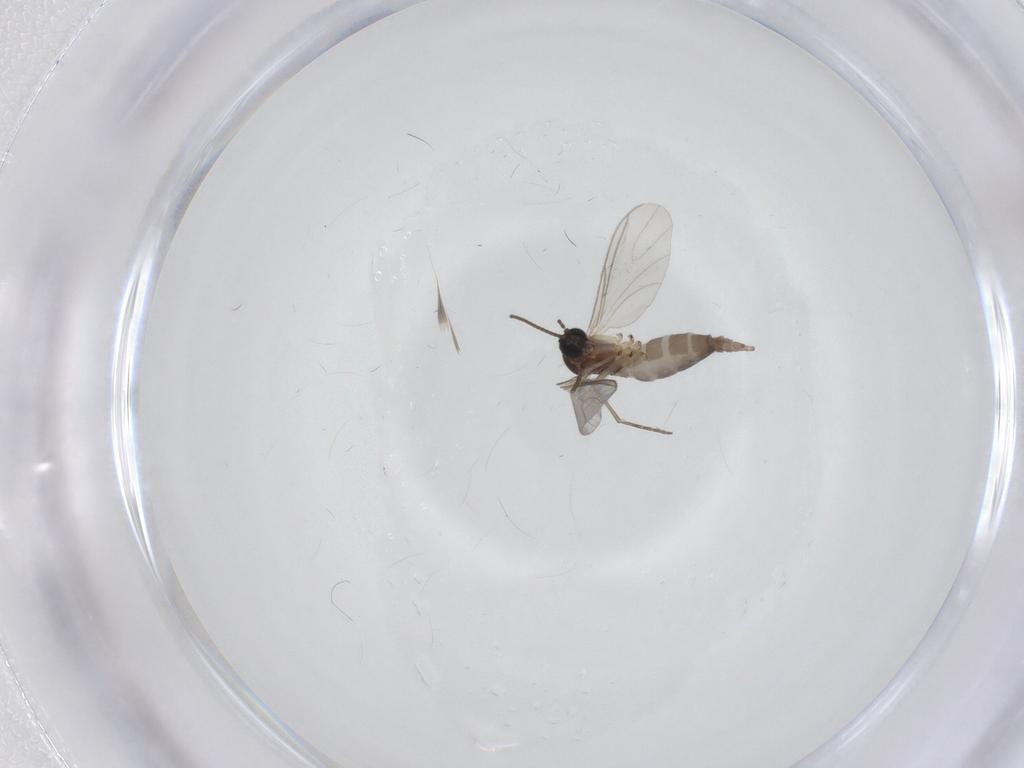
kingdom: Animalia
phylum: Arthropoda
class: Insecta
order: Diptera
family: Sciaridae
